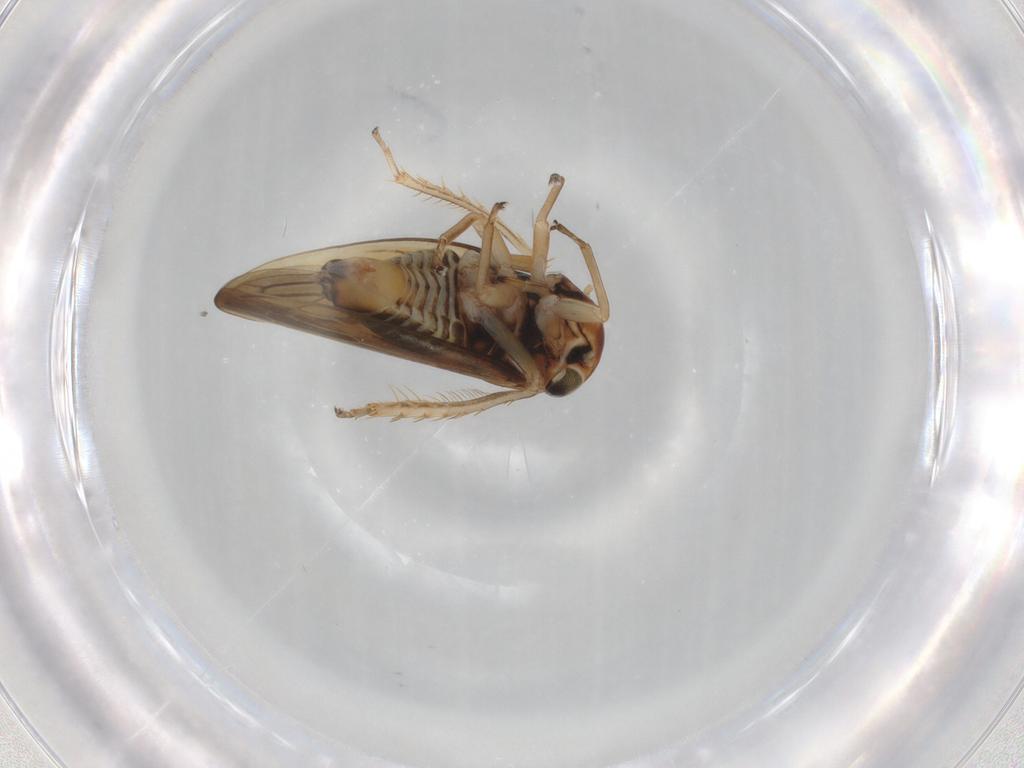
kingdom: Animalia
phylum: Arthropoda
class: Insecta
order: Hemiptera
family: Cicadellidae
